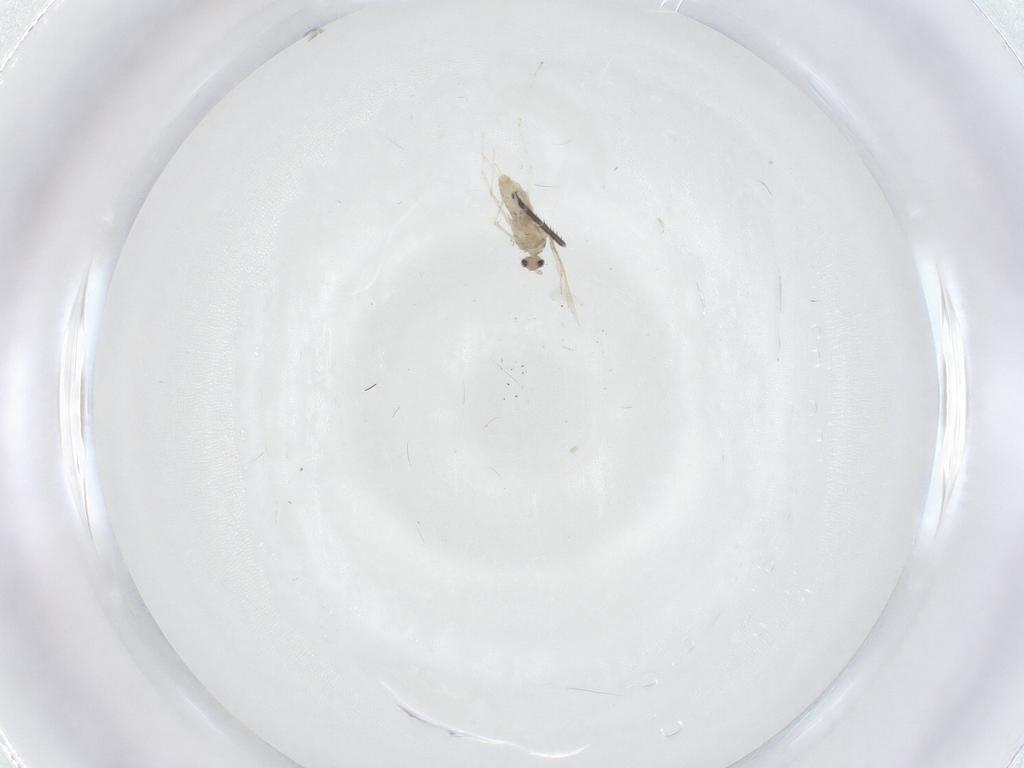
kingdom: Animalia
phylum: Arthropoda
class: Insecta
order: Diptera
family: Cecidomyiidae
